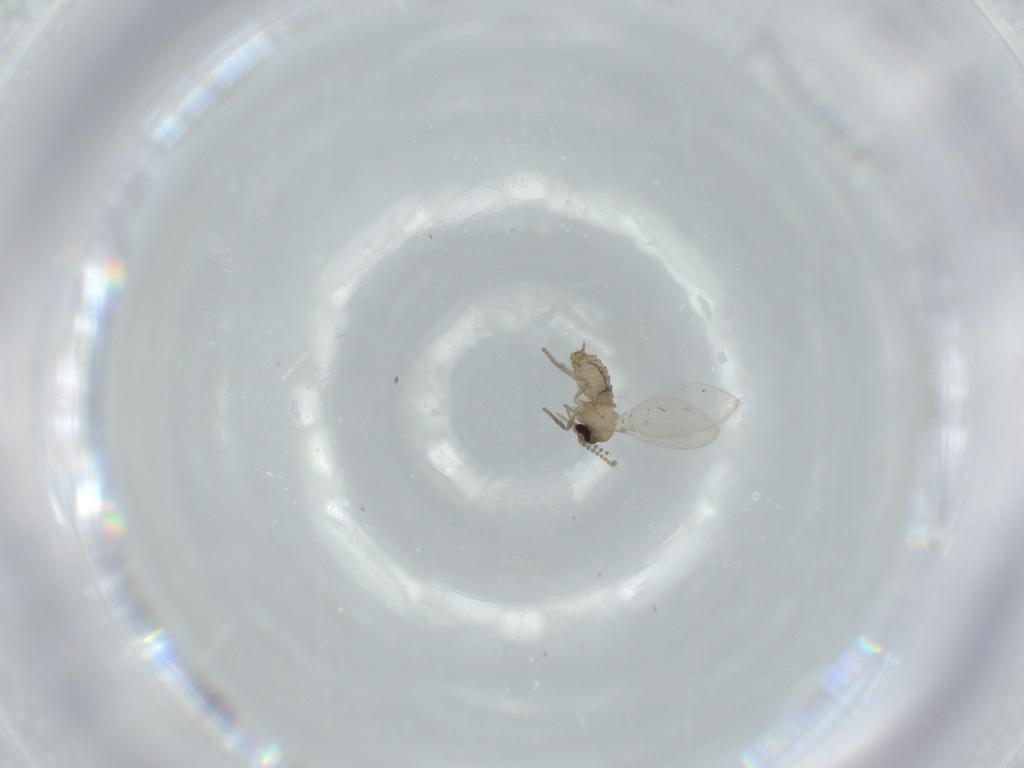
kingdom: Animalia
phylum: Arthropoda
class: Insecta
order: Diptera
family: Psychodidae
